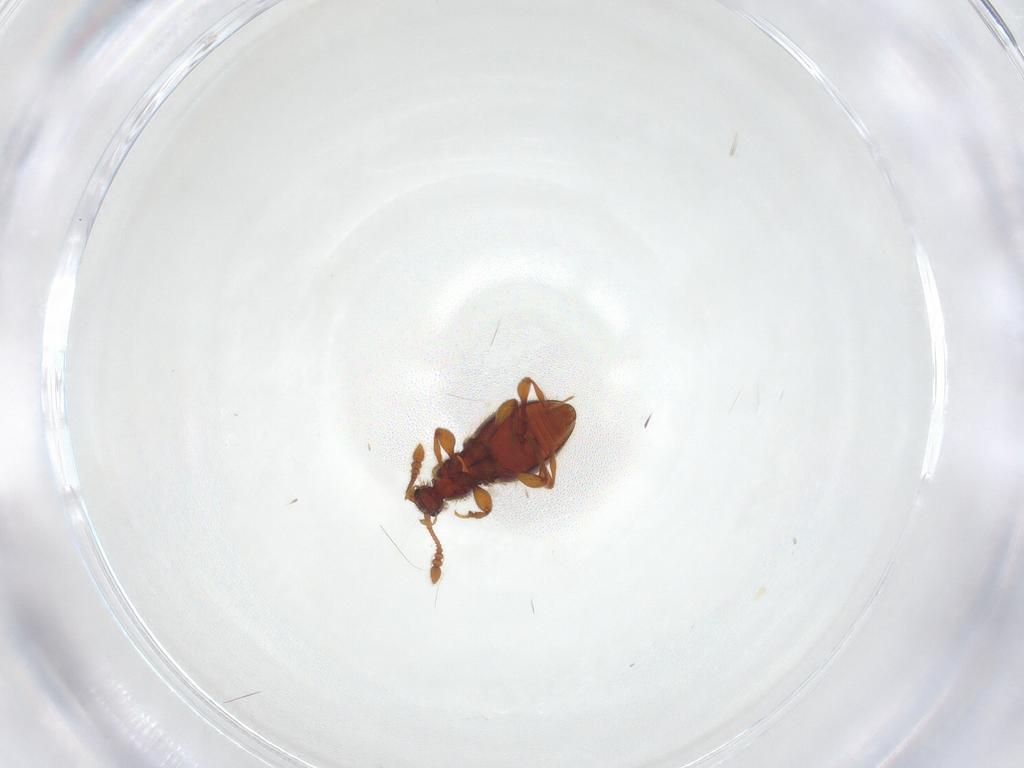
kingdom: Animalia
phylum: Arthropoda
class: Insecta
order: Coleoptera
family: Staphylinidae
